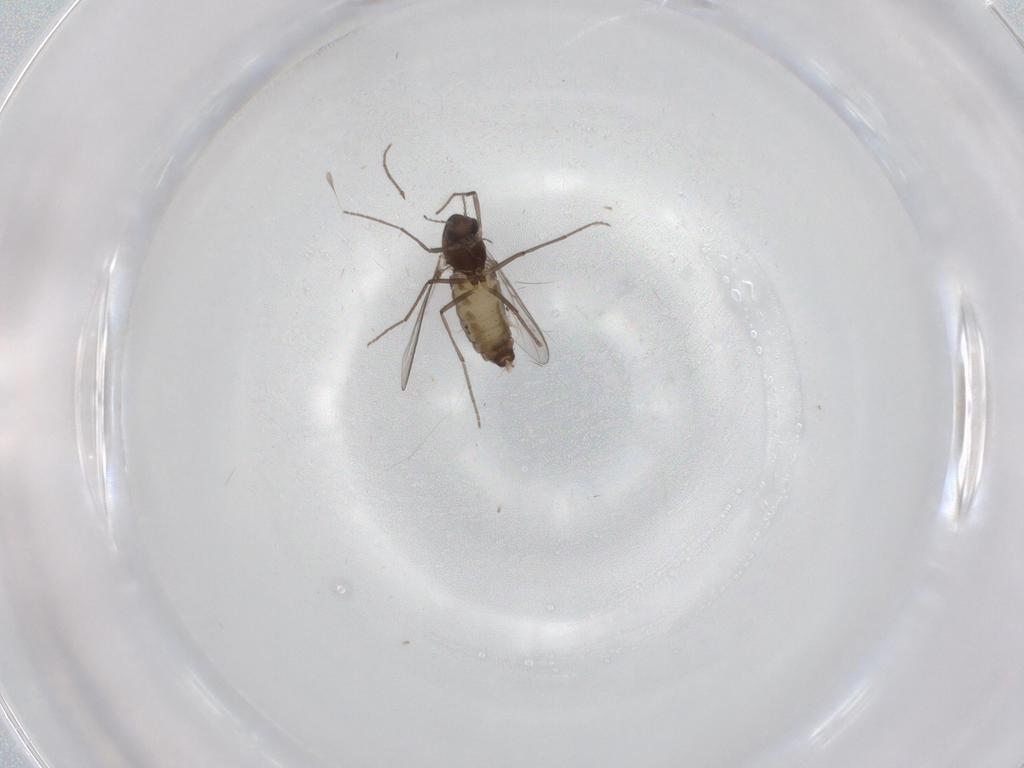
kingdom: Animalia
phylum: Arthropoda
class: Insecta
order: Diptera
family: Chironomidae
